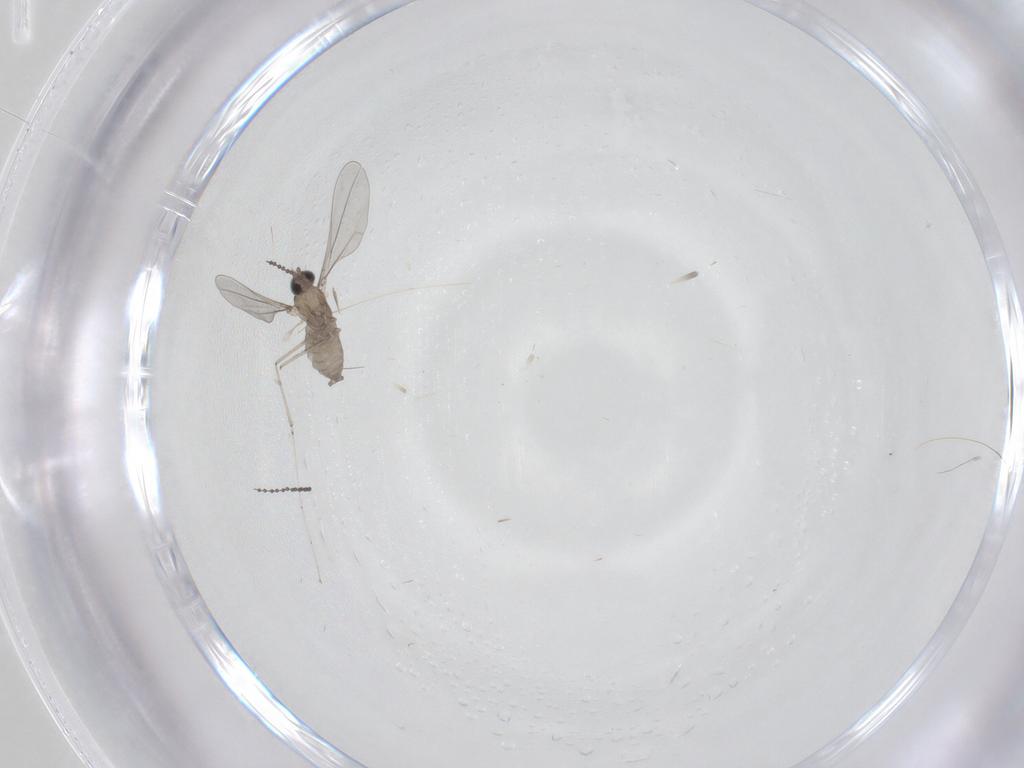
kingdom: Animalia
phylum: Arthropoda
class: Insecta
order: Diptera
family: Cecidomyiidae
